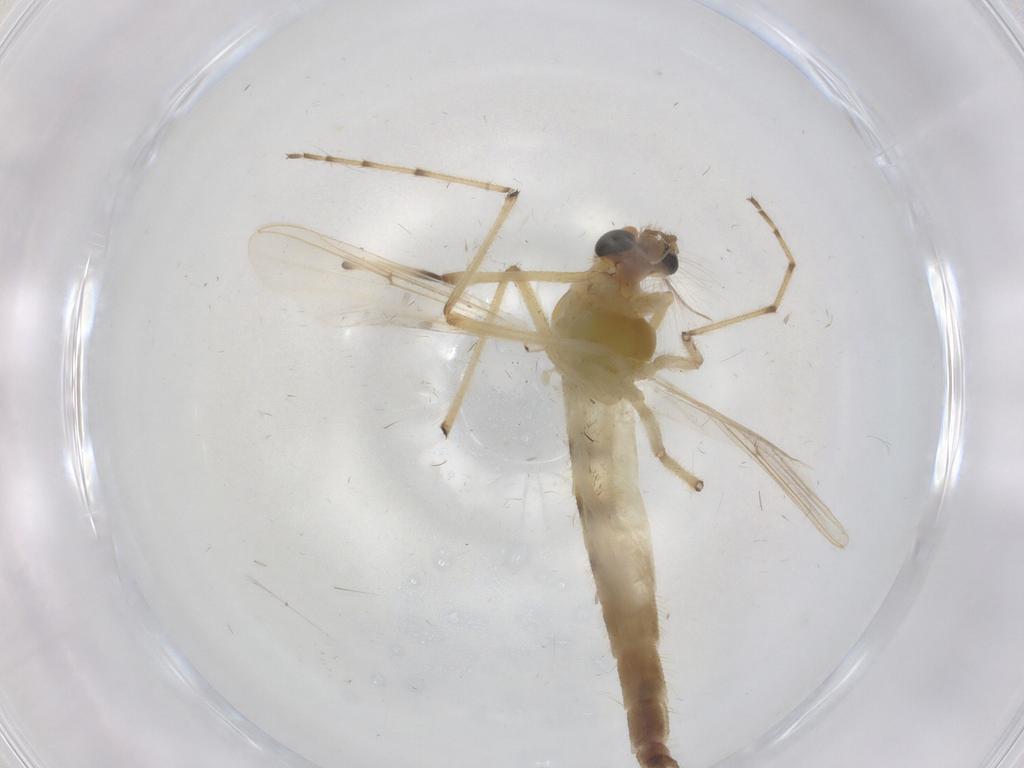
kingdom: Animalia
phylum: Arthropoda
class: Insecta
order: Diptera
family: Chironomidae
